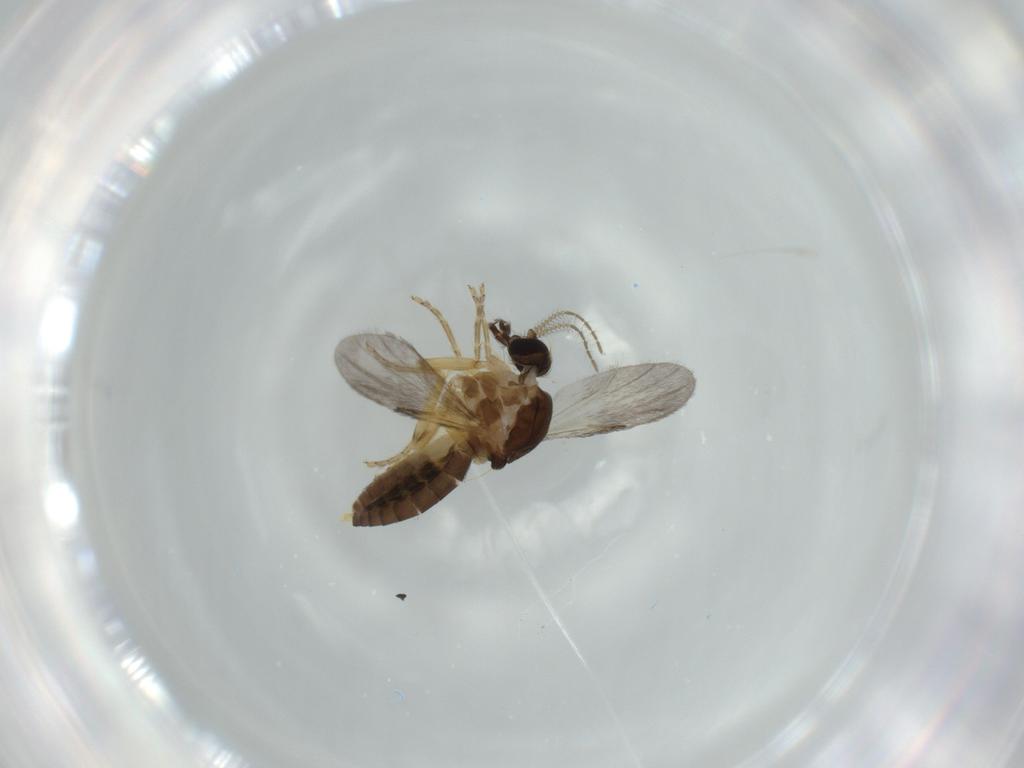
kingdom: Animalia
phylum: Arthropoda
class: Insecta
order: Diptera
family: Ceratopogonidae
